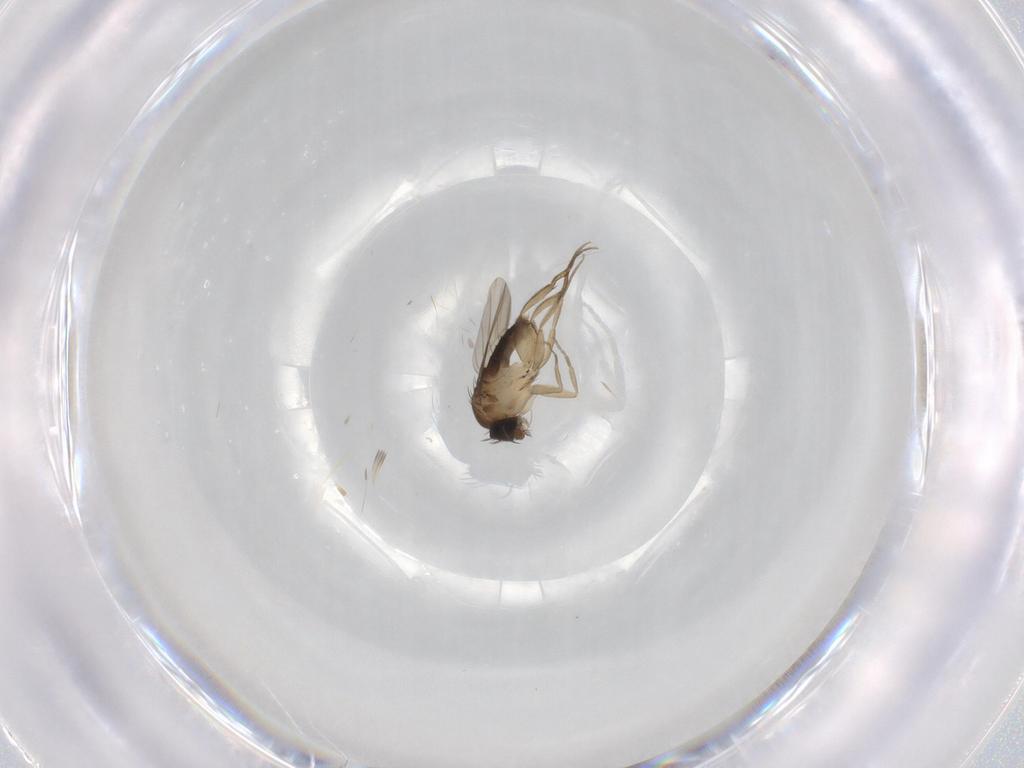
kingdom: Animalia
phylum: Arthropoda
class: Insecta
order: Diptera
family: Phoridae
